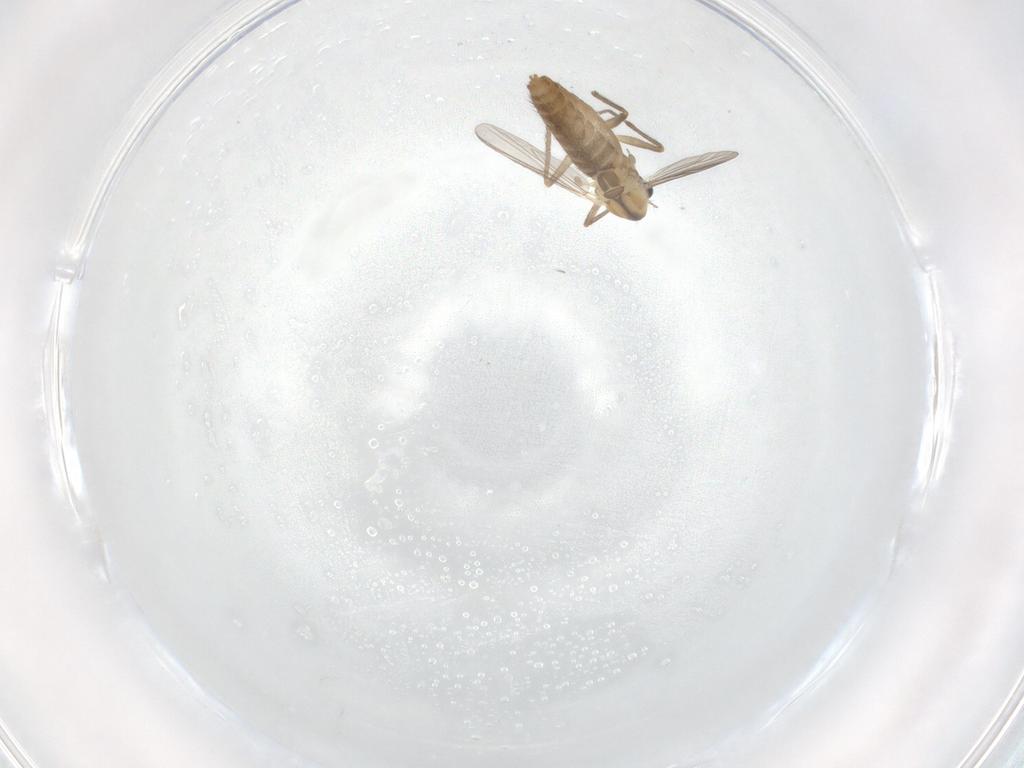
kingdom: Animalia
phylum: Arthropoda
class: Insecta
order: Diptera
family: Chironomidae
